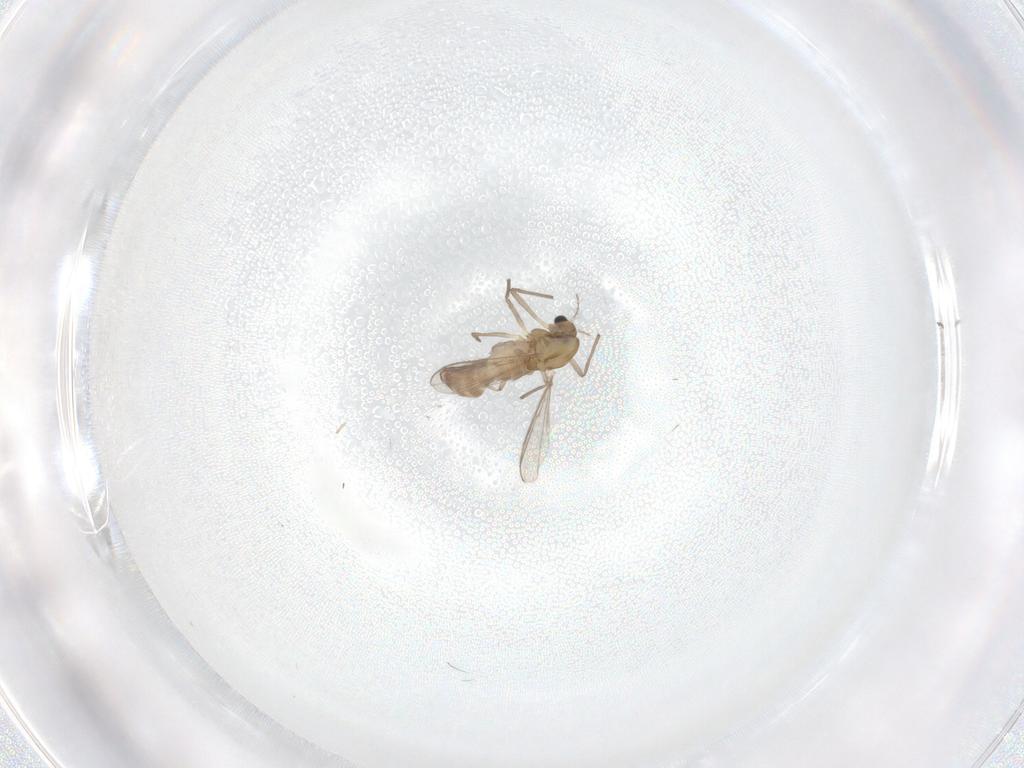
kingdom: Animalia
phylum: Arthropoda
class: Insecta
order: Diptera
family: Chironomidae
